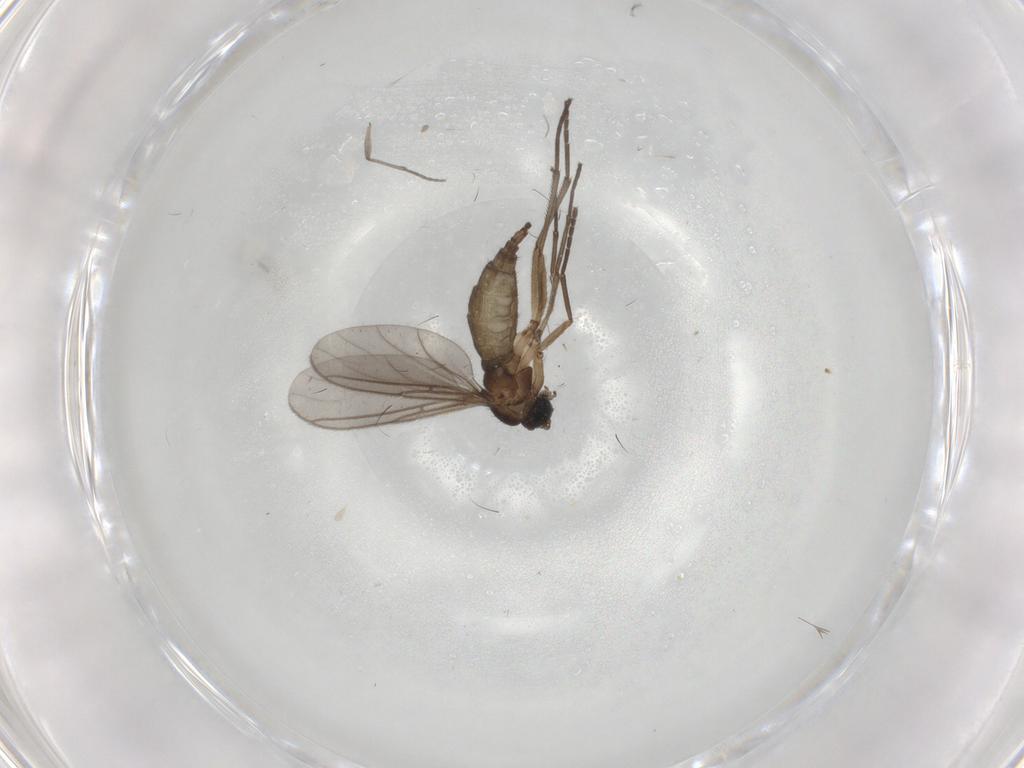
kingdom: Animalia
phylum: Arthropoda
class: Insecta
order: Diptera
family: Sciaridae
